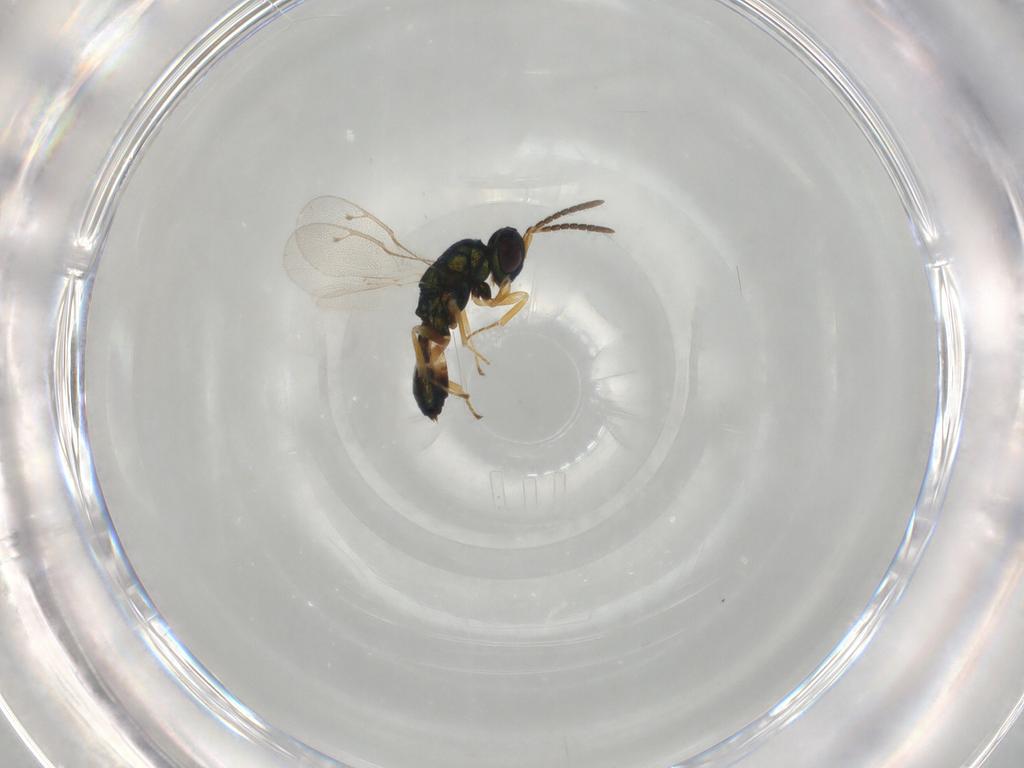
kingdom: Animalia
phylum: Arthropoda
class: Insecta
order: Hymenoptera
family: Pteromalidae
